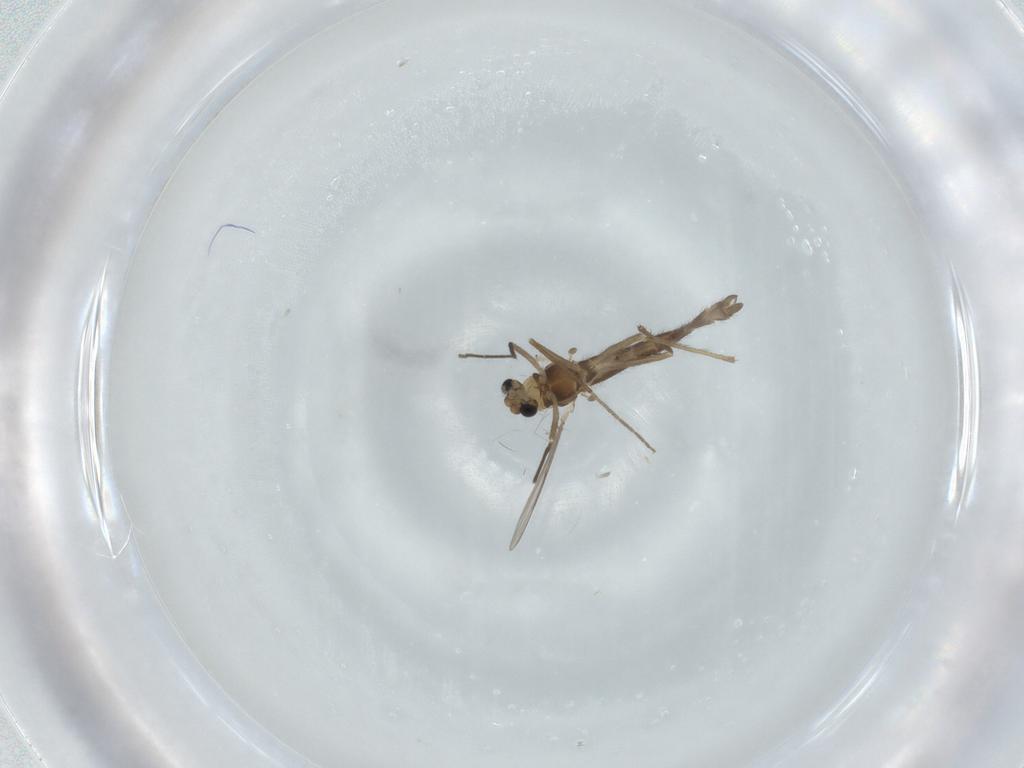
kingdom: Animalia
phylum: Arthropoda
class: Insecta
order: Diptera
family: Chironomidae
